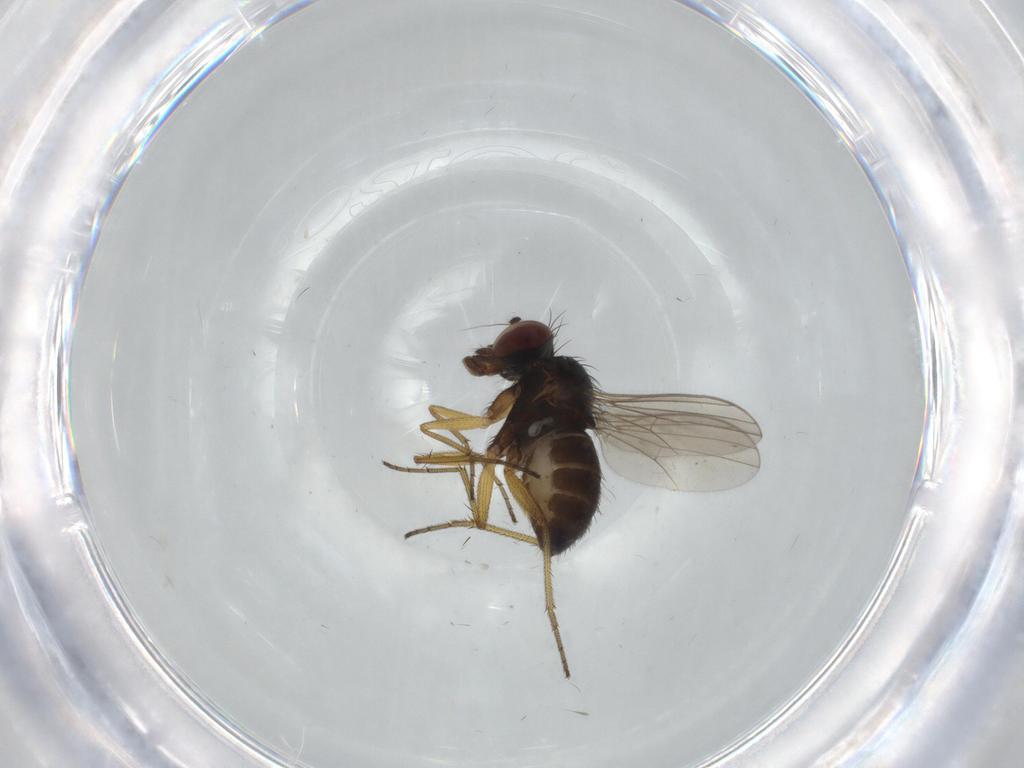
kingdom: Animalia
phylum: Arthropoda
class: Insecta
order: Diptera
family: Dolichopodidae
